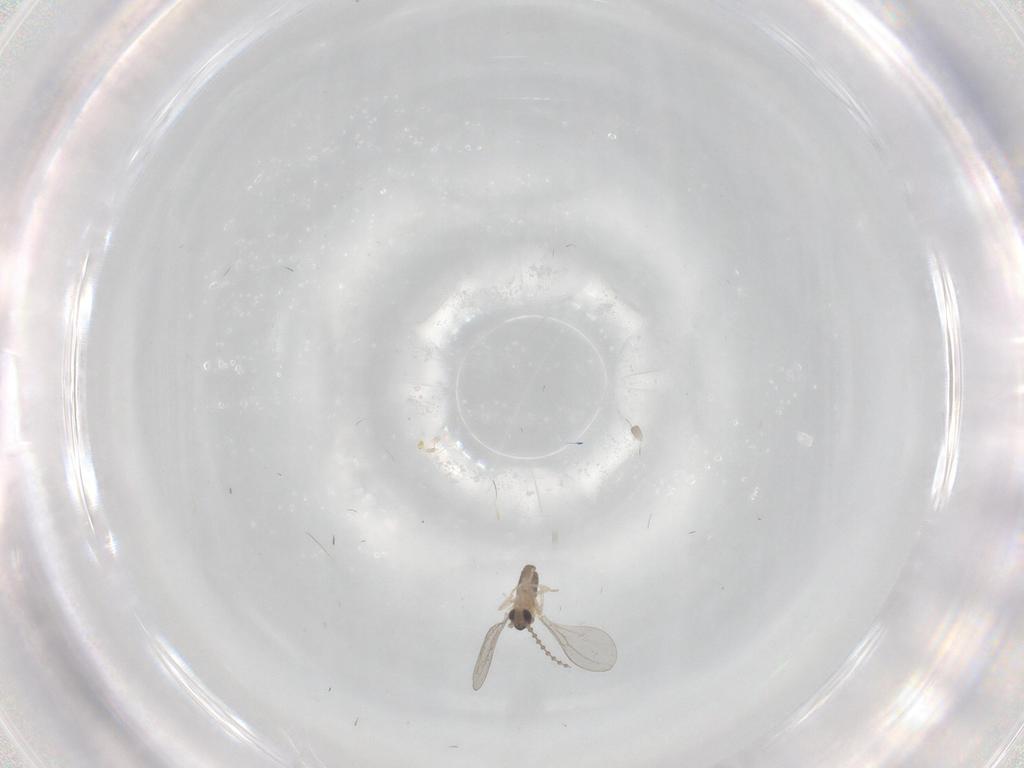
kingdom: Animalia
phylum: Arthropoda
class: Insecta
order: Diptera
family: Cecidomyiidae
